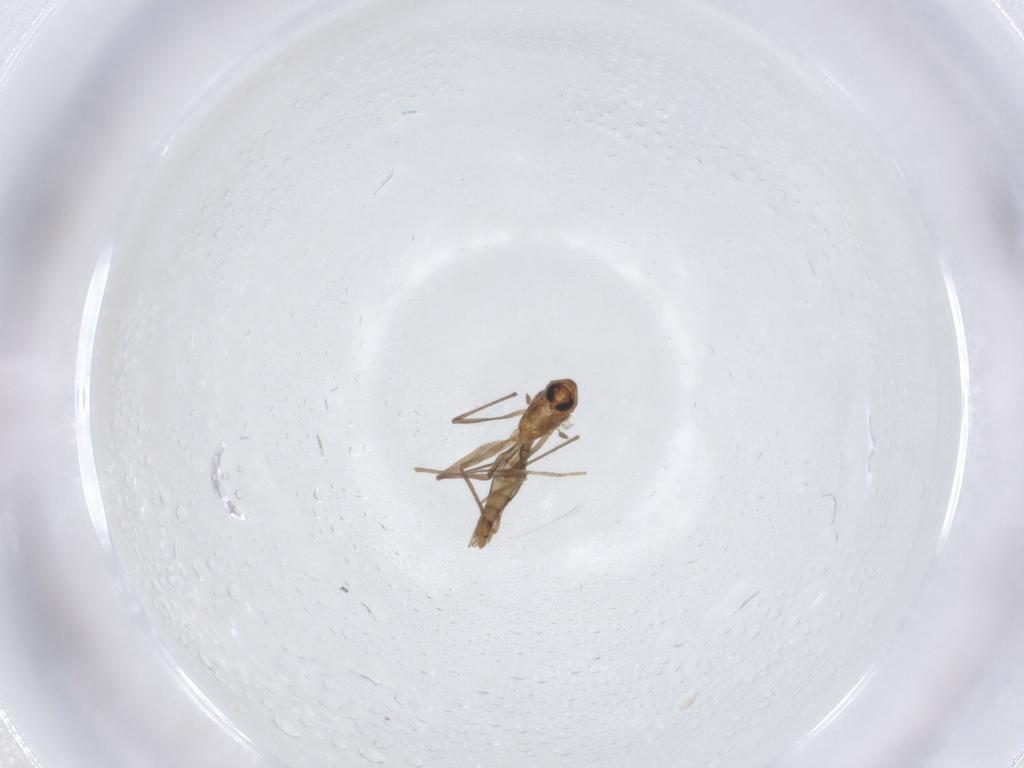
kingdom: Animalia
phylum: Arthropoda
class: Insecta
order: Diptera
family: Chironomidae
